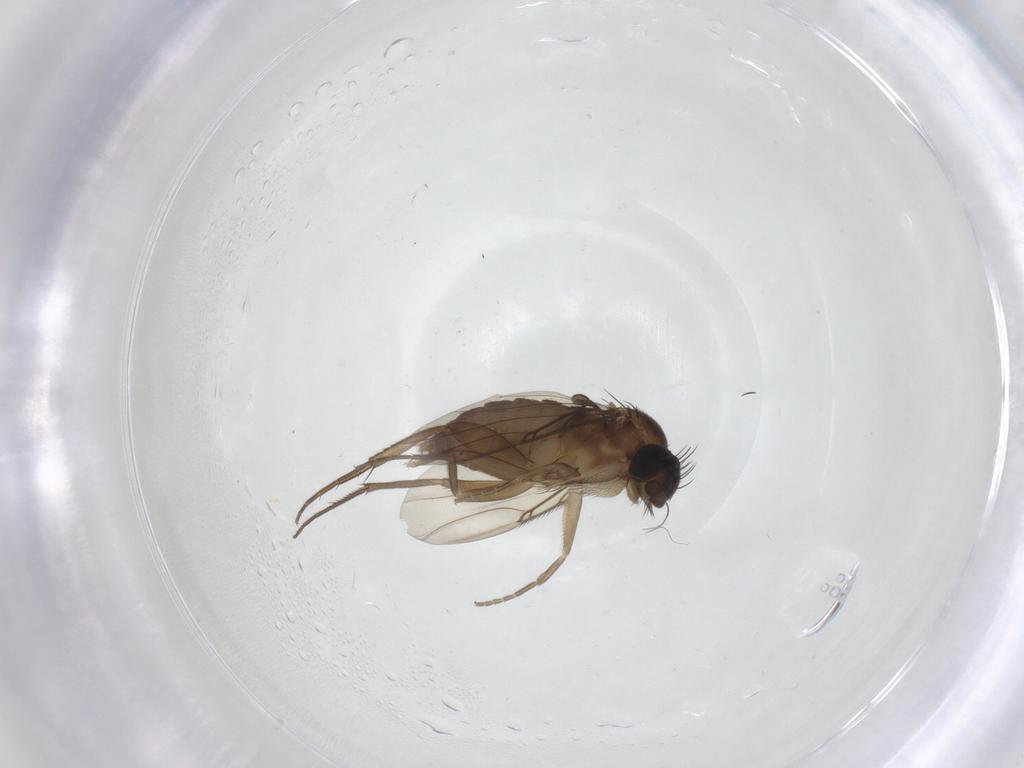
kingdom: Animalia
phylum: Arthropoda
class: Insecta
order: Diptera
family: Phoridae
